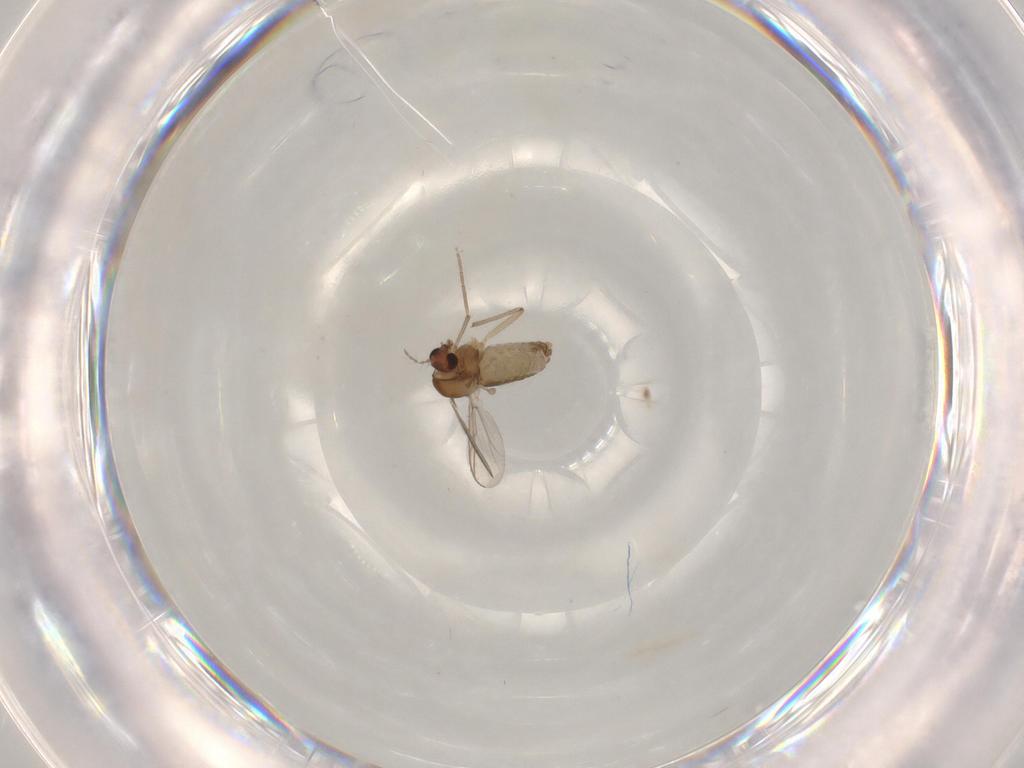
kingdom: Animalia
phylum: Arthropoda
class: Insecta
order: Diptera
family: Chironomidae
